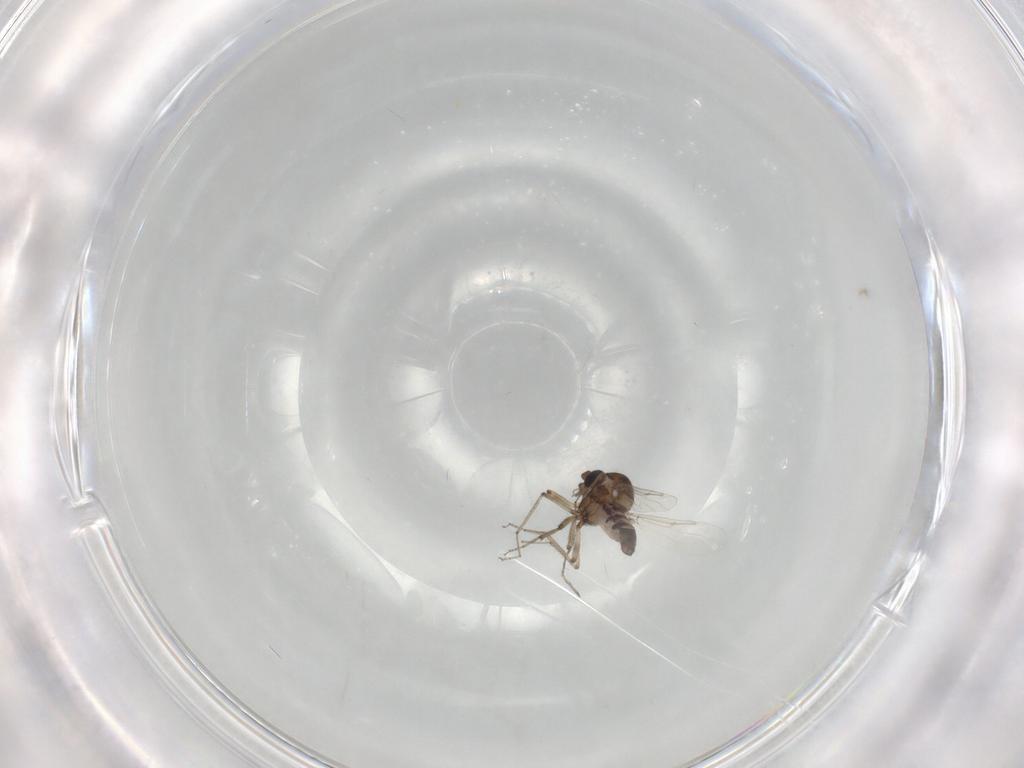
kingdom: Animalia
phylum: Arthropoda
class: Insecta
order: Diptera
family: Ceratopogonidae
